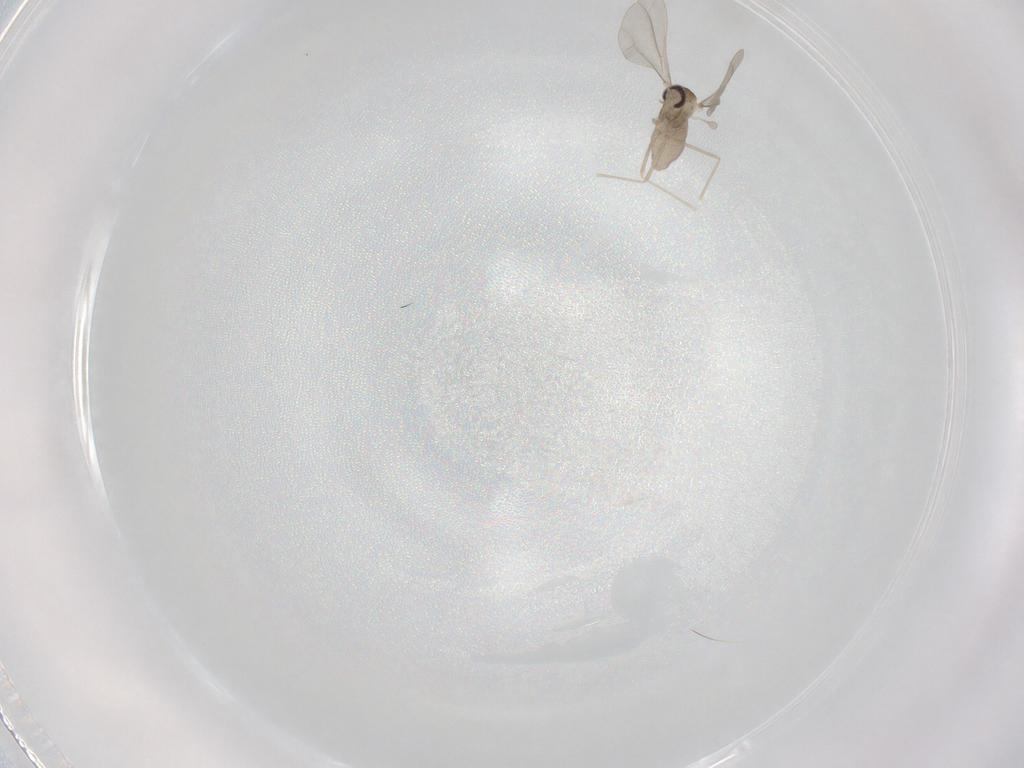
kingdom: Animalia
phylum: Arthropoda
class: Insecta
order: Diptera
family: Cecidomyiidae
